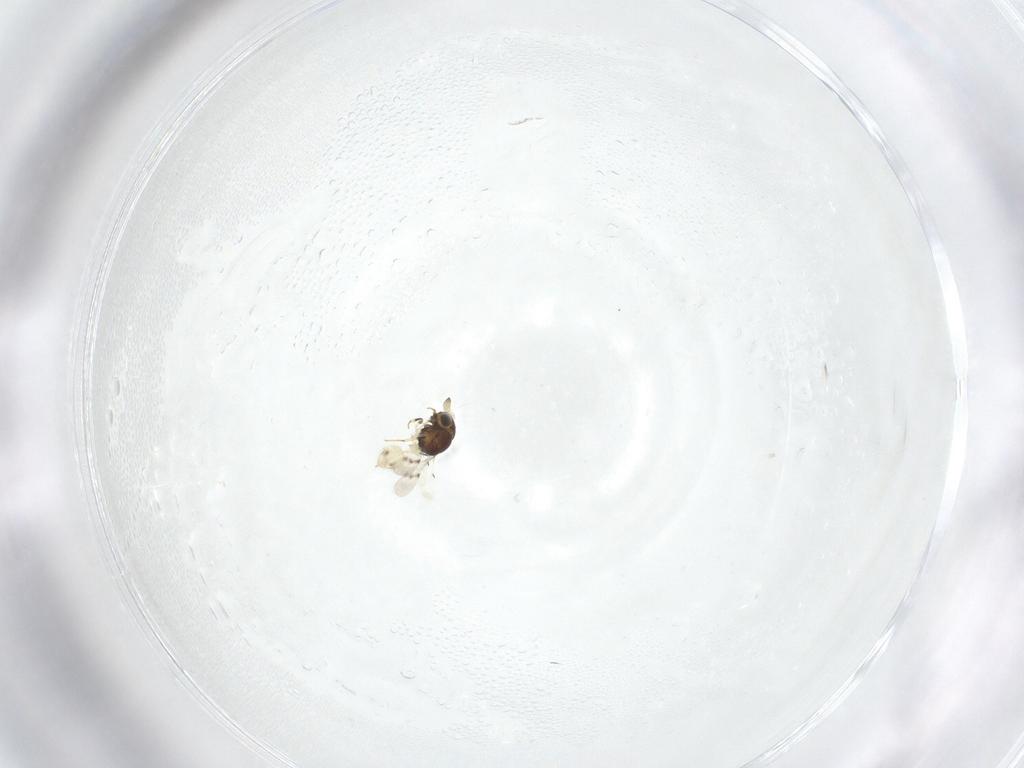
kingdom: Animalia
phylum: Arthropoda
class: Insecta
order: Hymenoptera
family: Scelionidae
